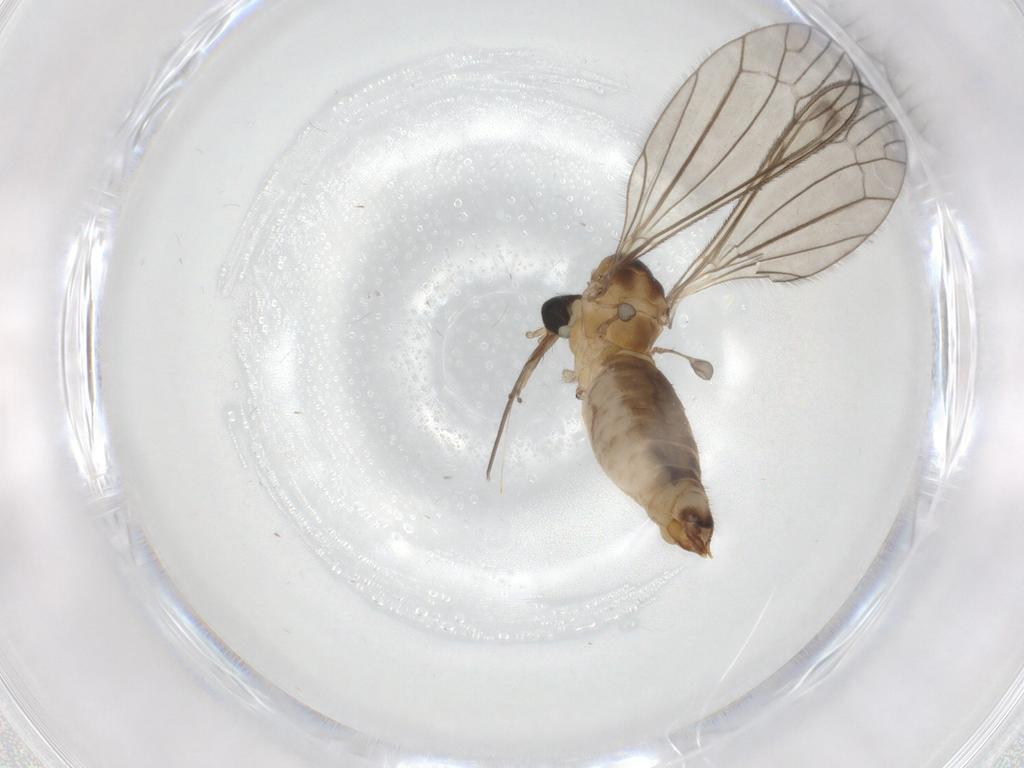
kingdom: Animalia
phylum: Arthropoda
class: Insecta
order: Diptera
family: Limoniidae
